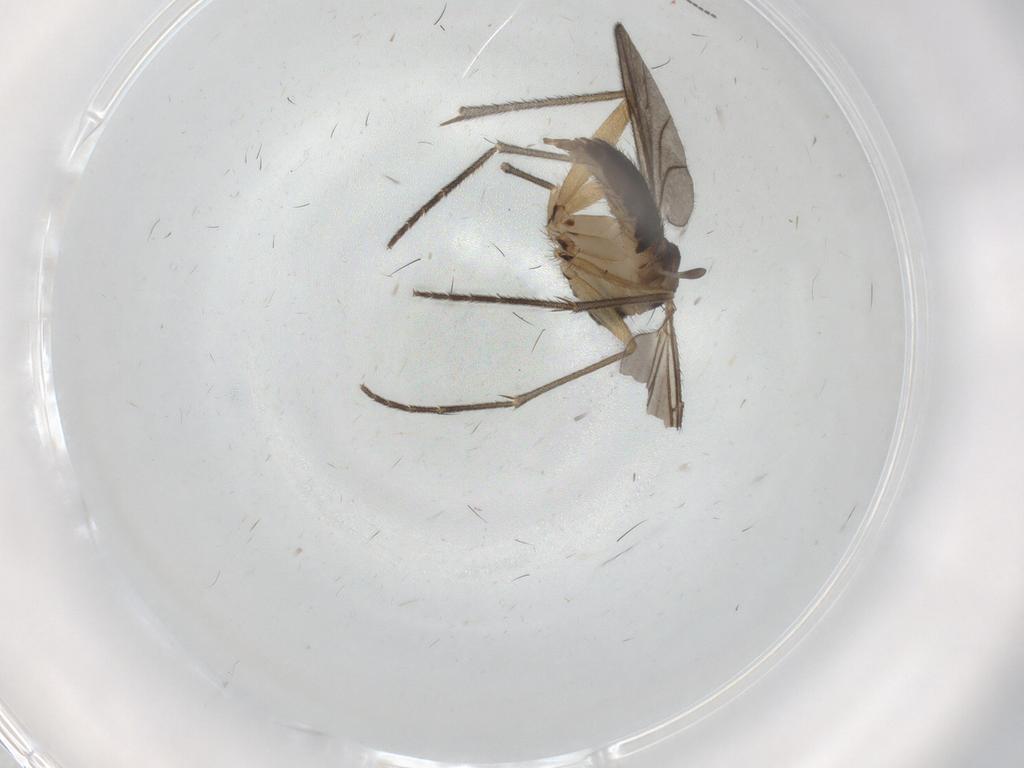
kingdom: Animalia
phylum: Arthropoda
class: Insecta
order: Diptera
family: Sciaridae
